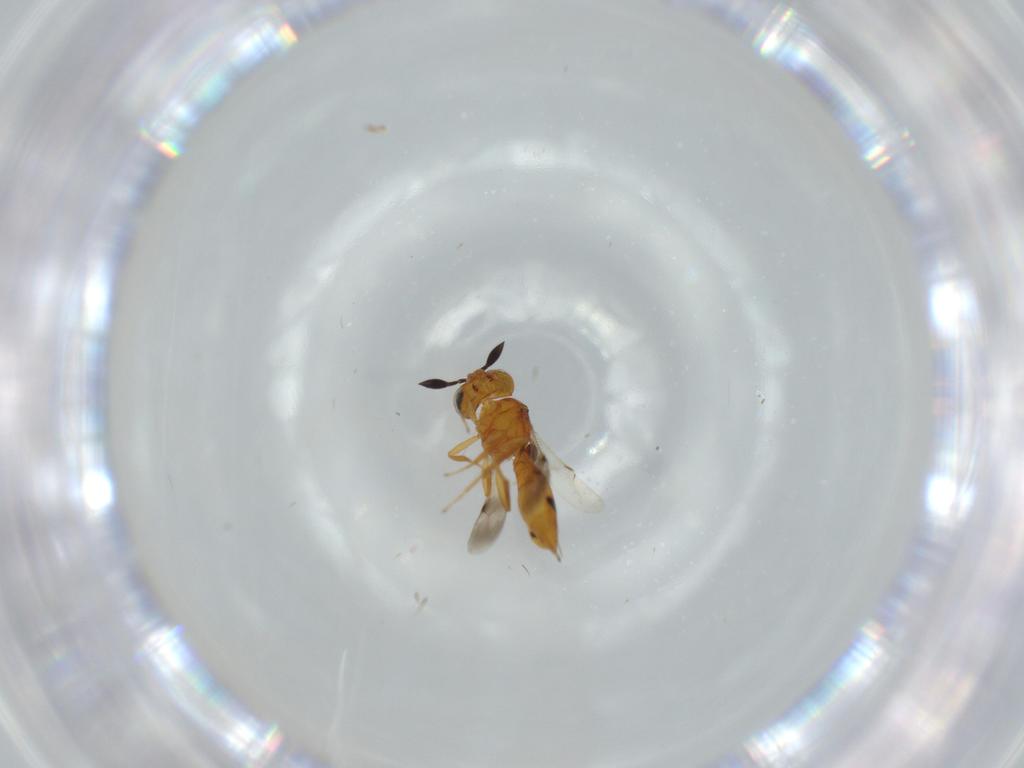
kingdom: Animalia
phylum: Arthropoda
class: Insecta
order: Hymenoptera
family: Scelionidae
